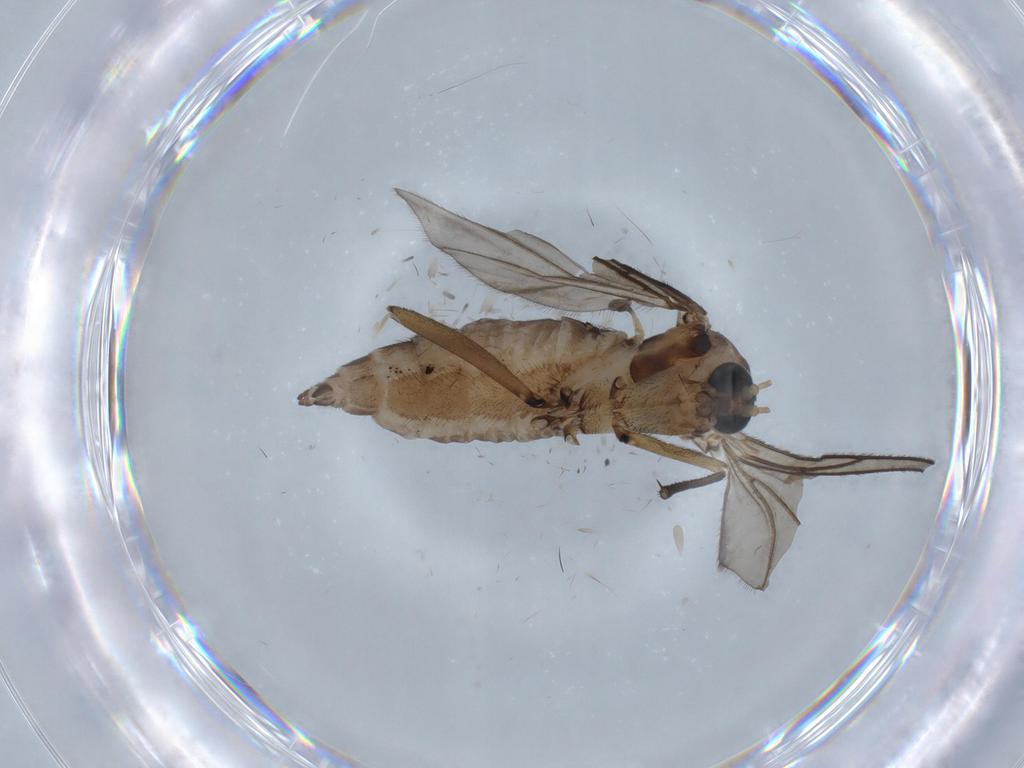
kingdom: Animalia
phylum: Arthropoda
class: Insecta
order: Diptera
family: Sciaridae
